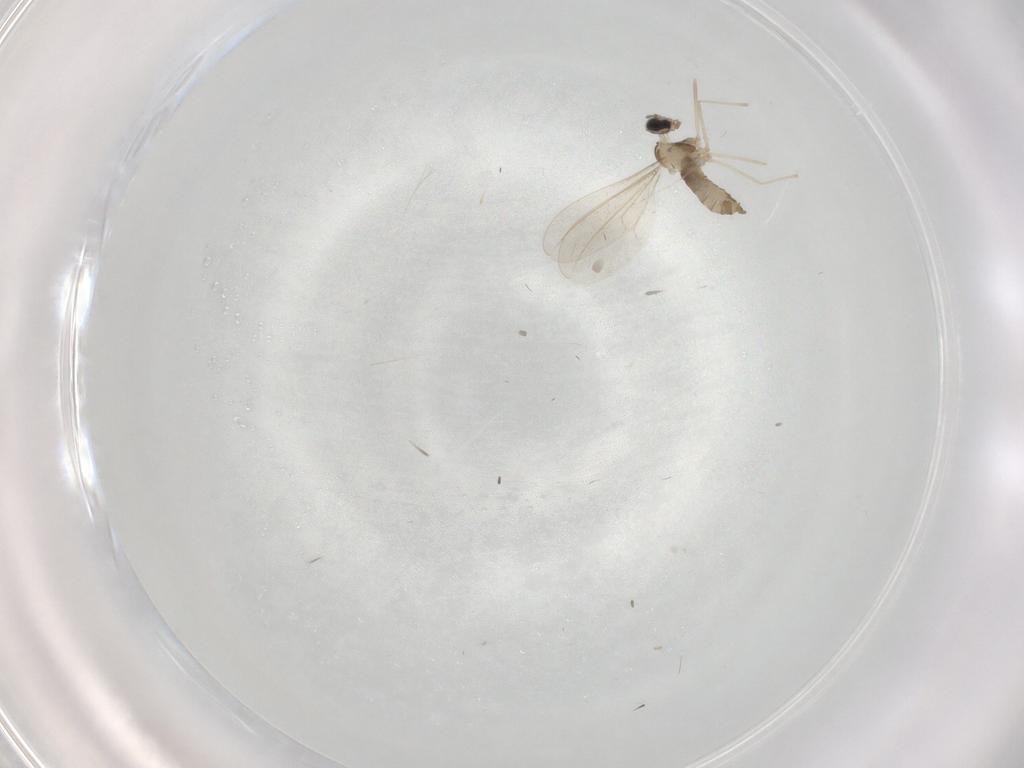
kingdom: Animalia
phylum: Arthropoda
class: Insecta
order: Diptera
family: Cecidomyiidae
